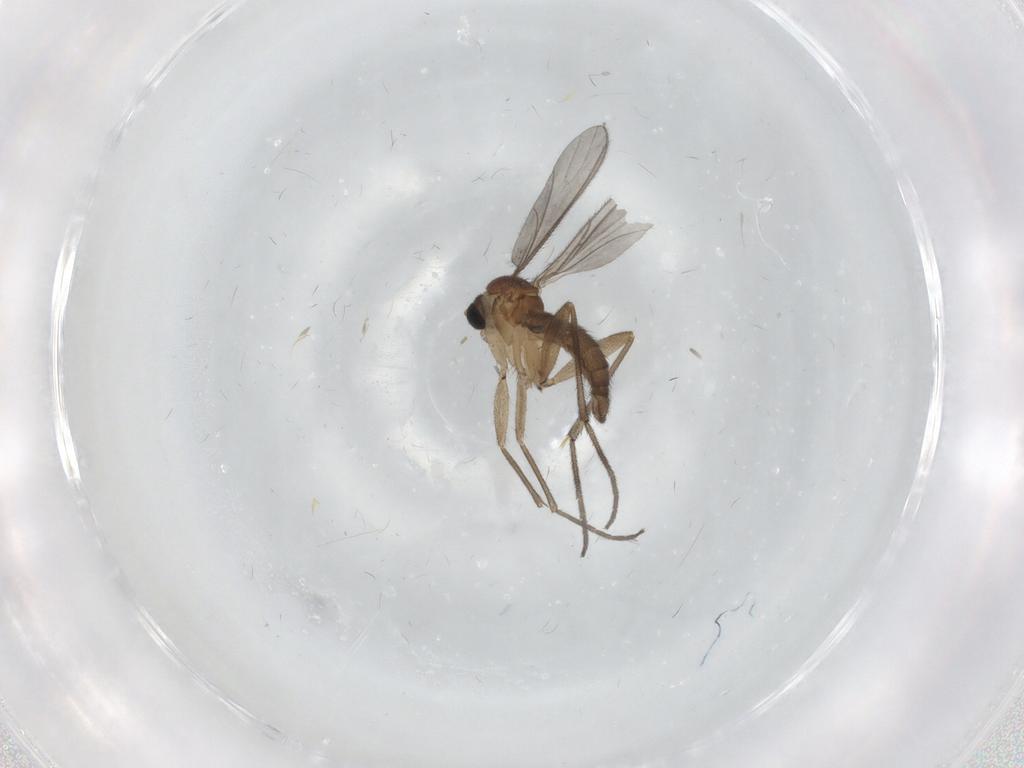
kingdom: Animalia
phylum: Arthropoda
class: Insecta
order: Diptera
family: Sciaridae
